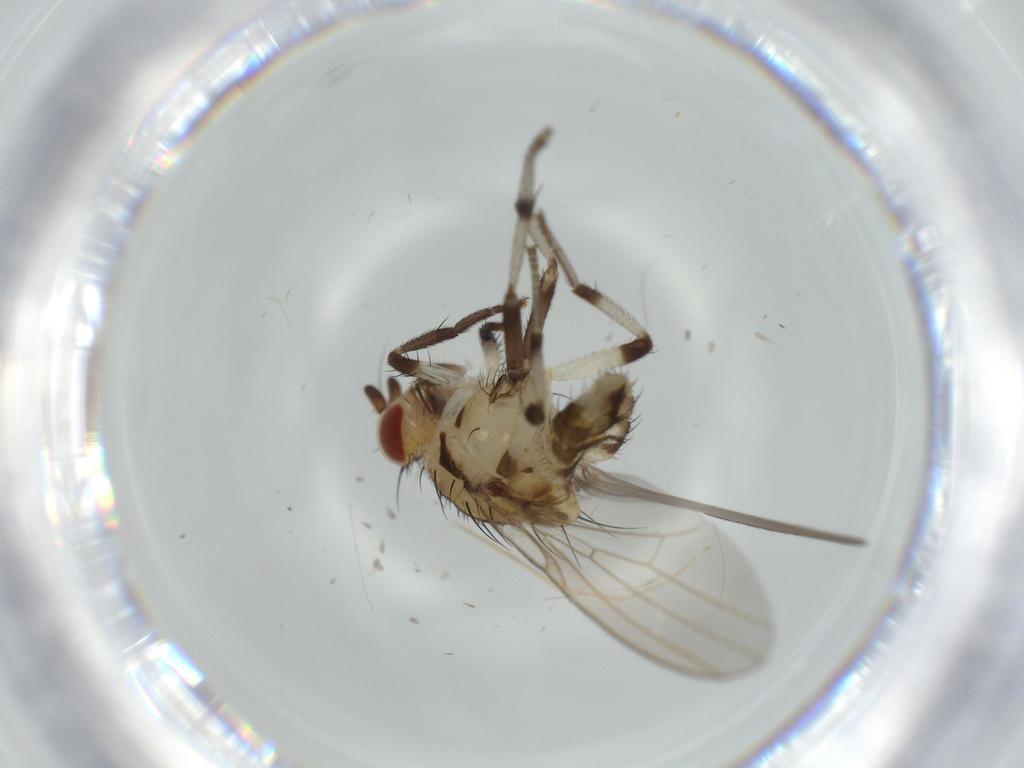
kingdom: Animalia
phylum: Arthropoda
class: Insecta
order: Diptera
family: Lauxaniidae
